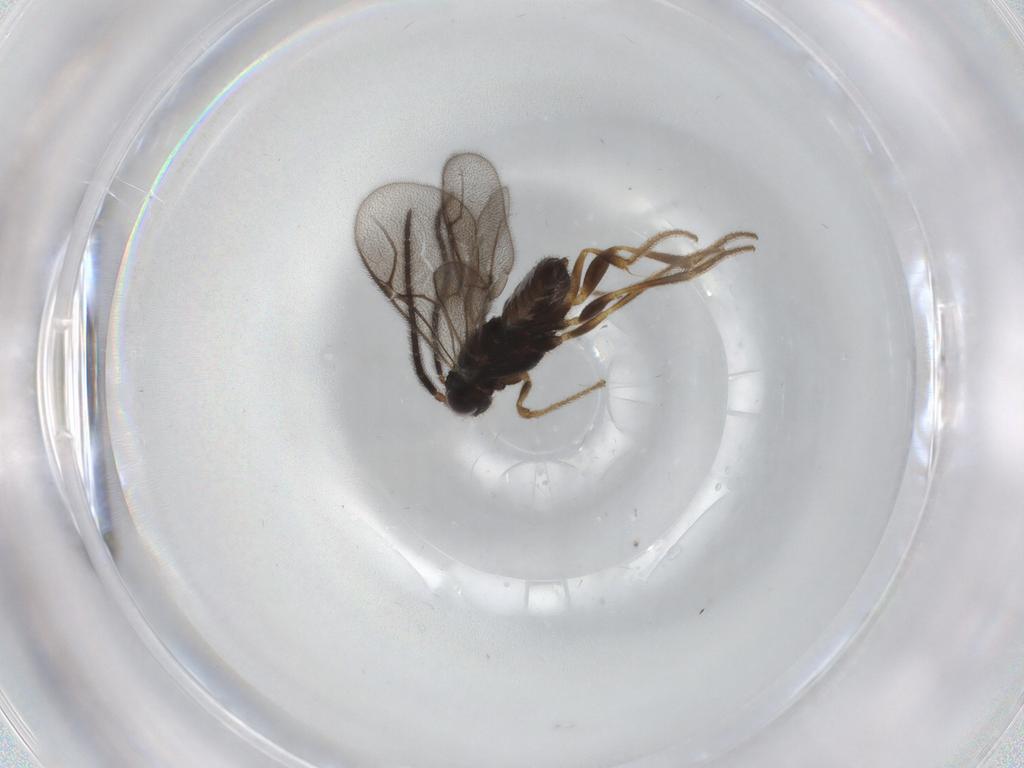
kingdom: Animalia
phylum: Arthropoda
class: Insecta
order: Hymenoptera
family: Dryinidae
